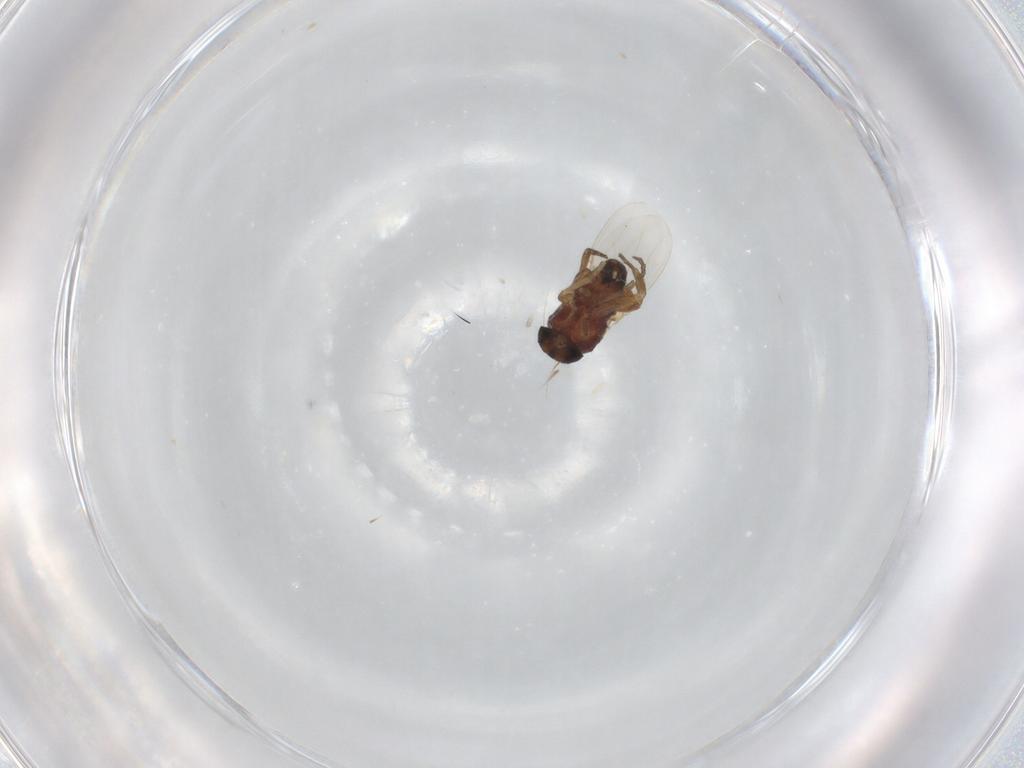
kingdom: Animalia
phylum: Arthropoda
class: Insecta
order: Diptera
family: Phoridae
